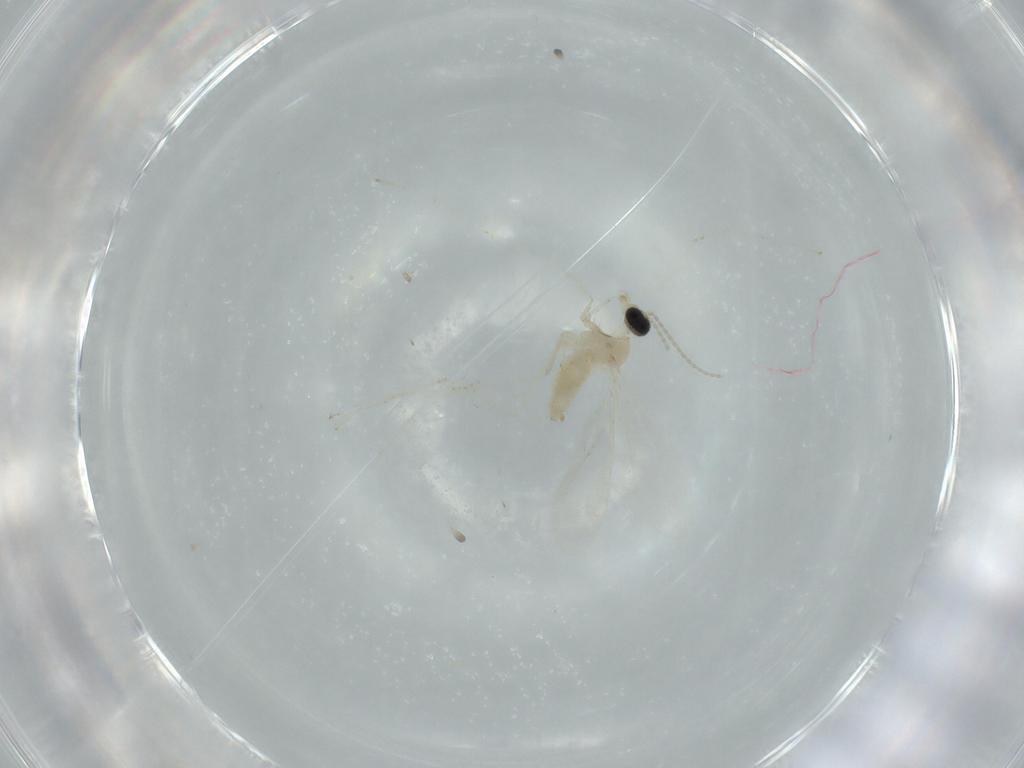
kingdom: Animalia
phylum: Arthropoda
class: Insecta
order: Diptera
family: Cecidomyiidae
